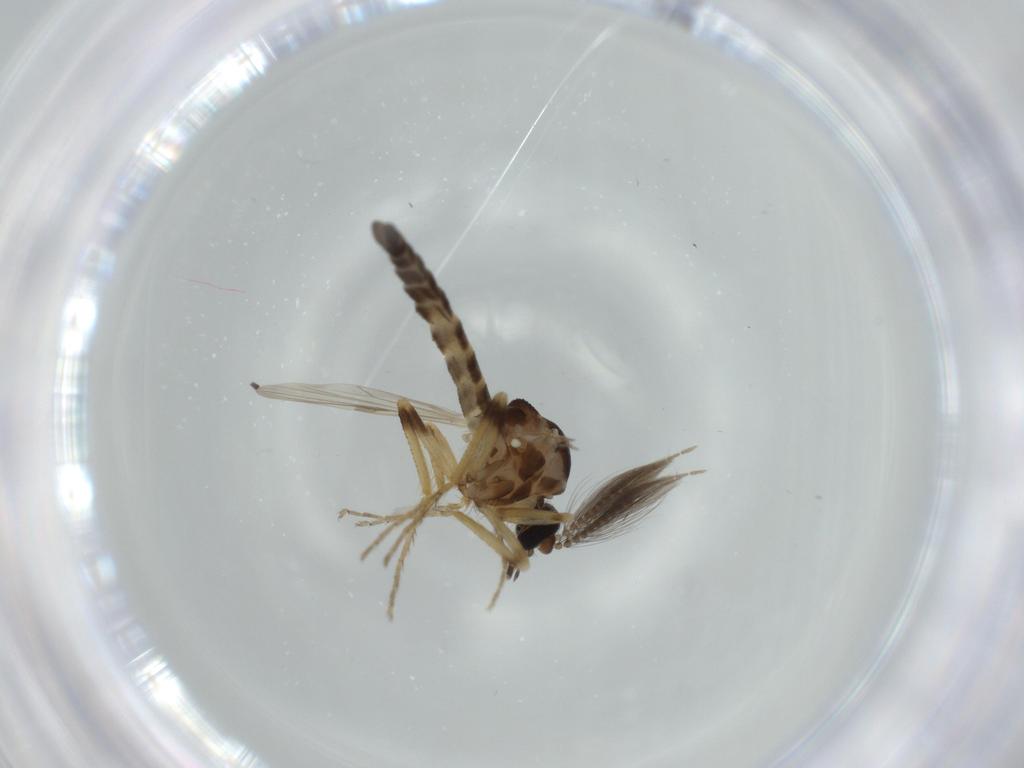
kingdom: Animalia
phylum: Arthropoda
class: Insecta
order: Diptera
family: Ceratopogonidae
